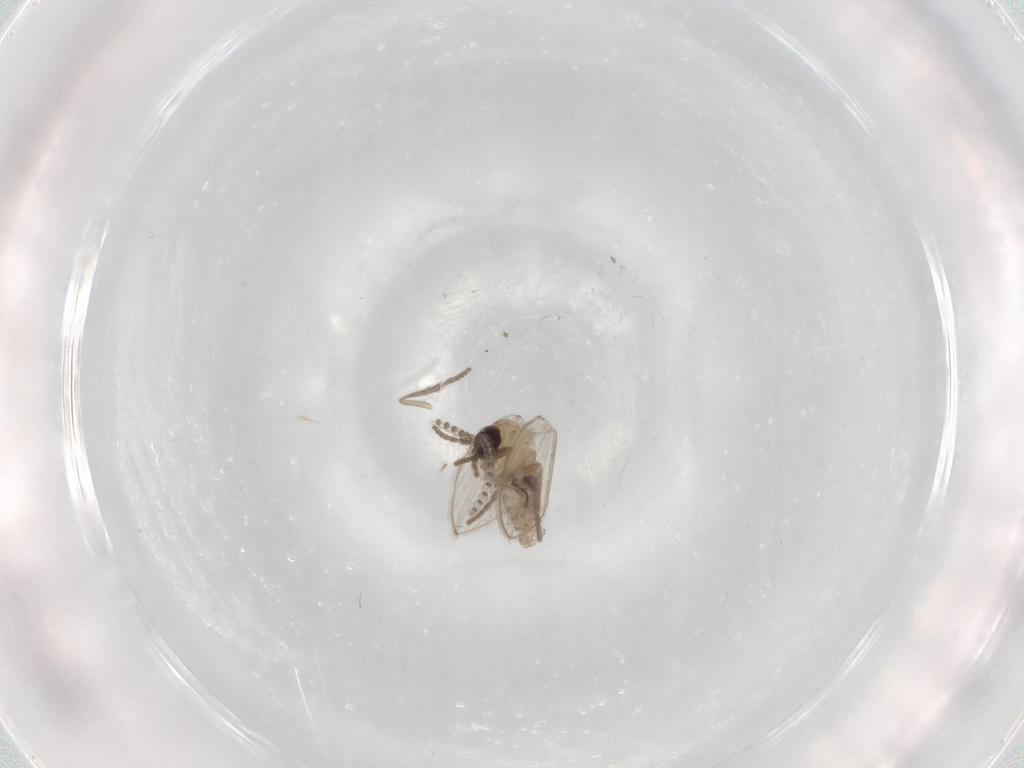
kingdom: Animalia
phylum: Arthropoda
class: Insecta
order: Diptera
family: Psychodidae
